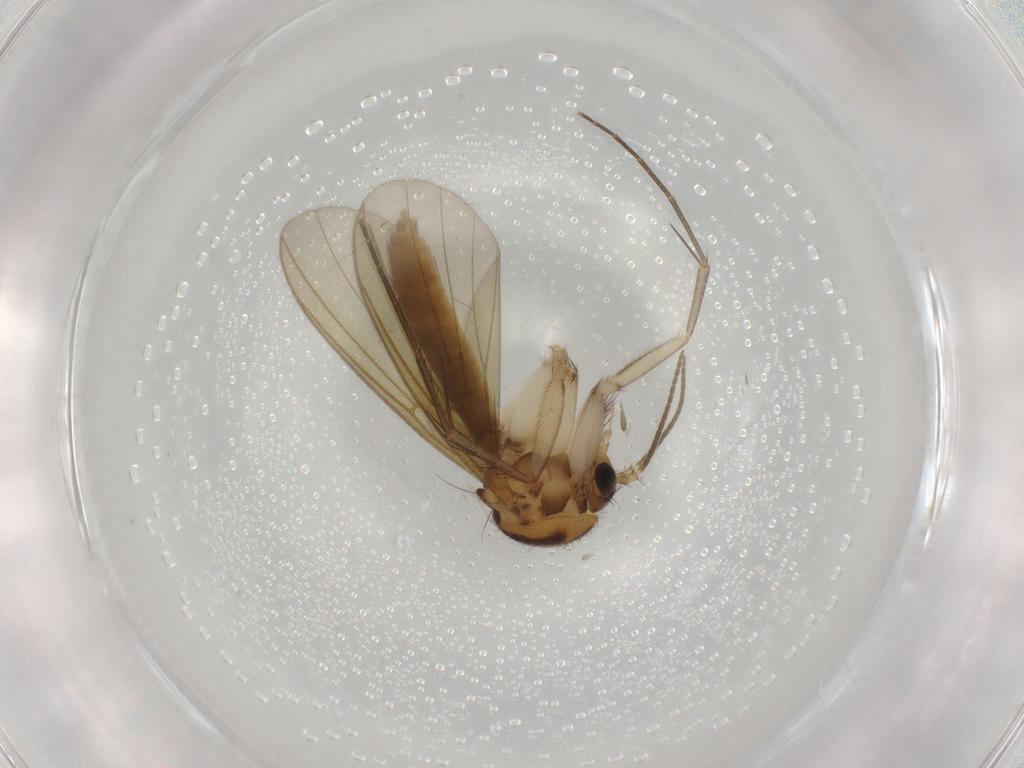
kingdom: Animalia
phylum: Arthropoda
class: Insecta
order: Diptera
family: Mycetophilidae
